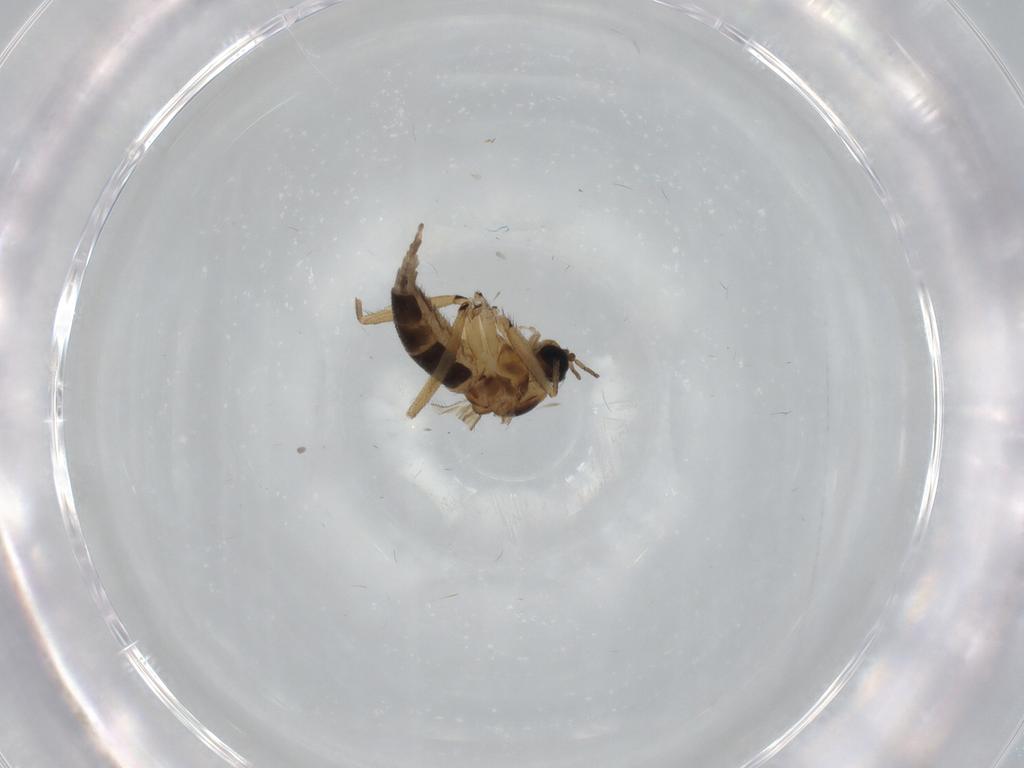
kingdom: Animalia
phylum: Arthropoda
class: Insecta
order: Diptera
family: Sciaridae
